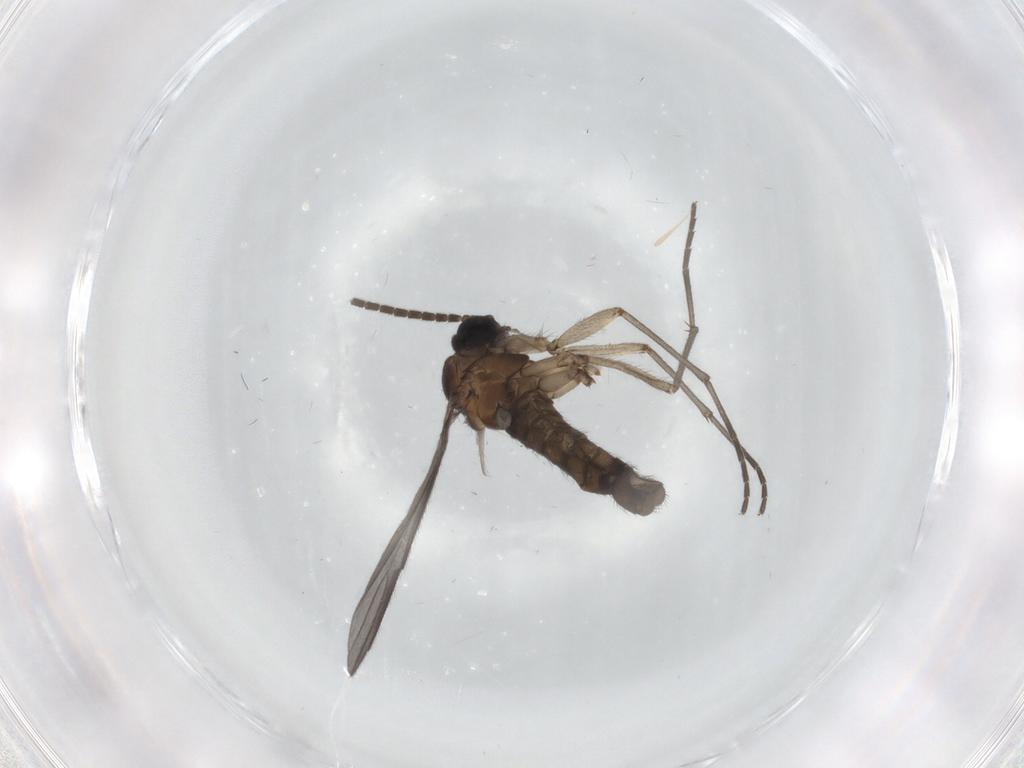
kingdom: Animalia
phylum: Arthropoda
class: Insecta
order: Diptera
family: Sciaridae
